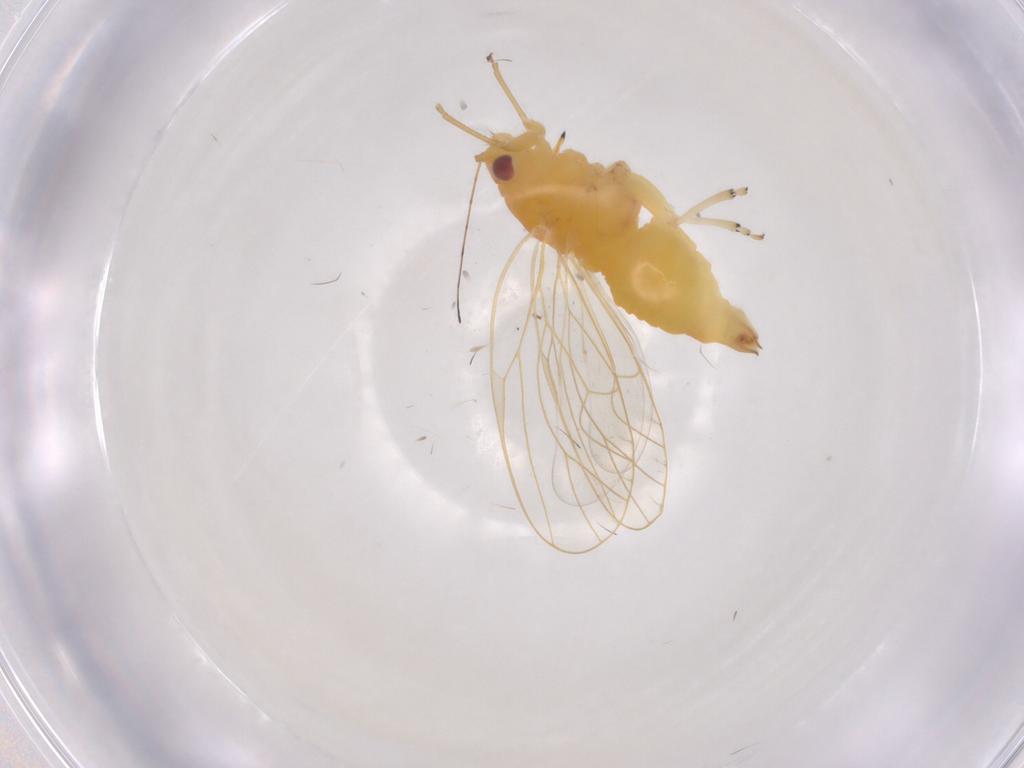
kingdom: Animalia
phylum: Arthropoda
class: Insecta
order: Hemiptera
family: Psyllidae
